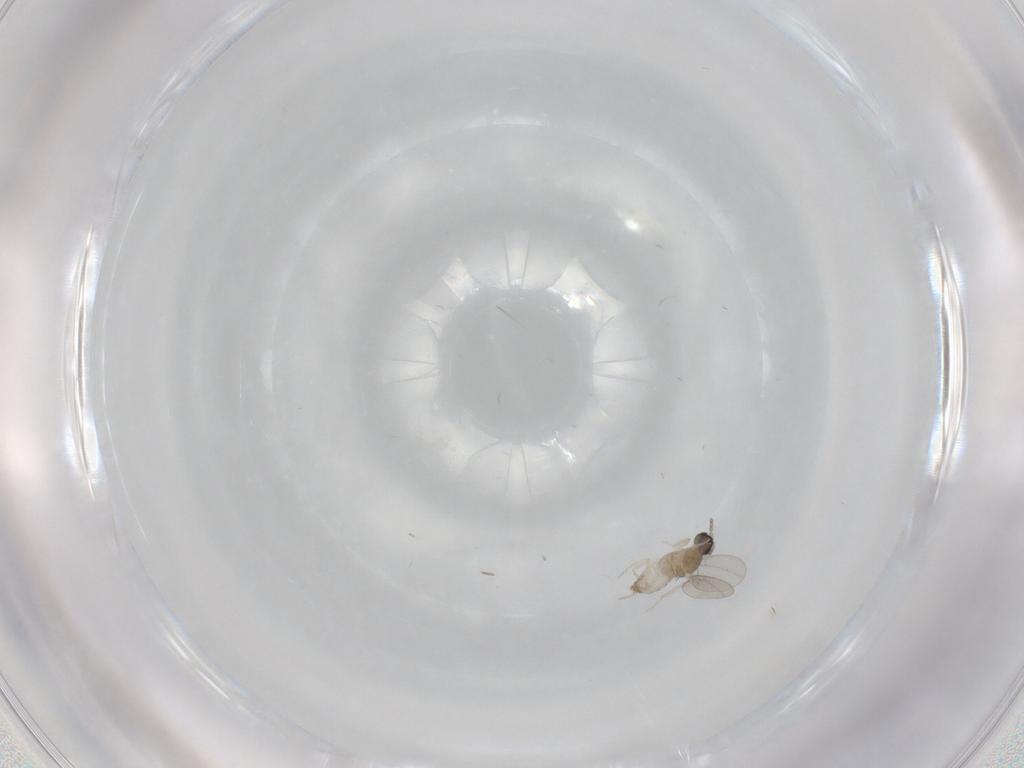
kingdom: Animalia
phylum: Arthropoda
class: Insecta
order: Diptera
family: Cecidomyiidae
